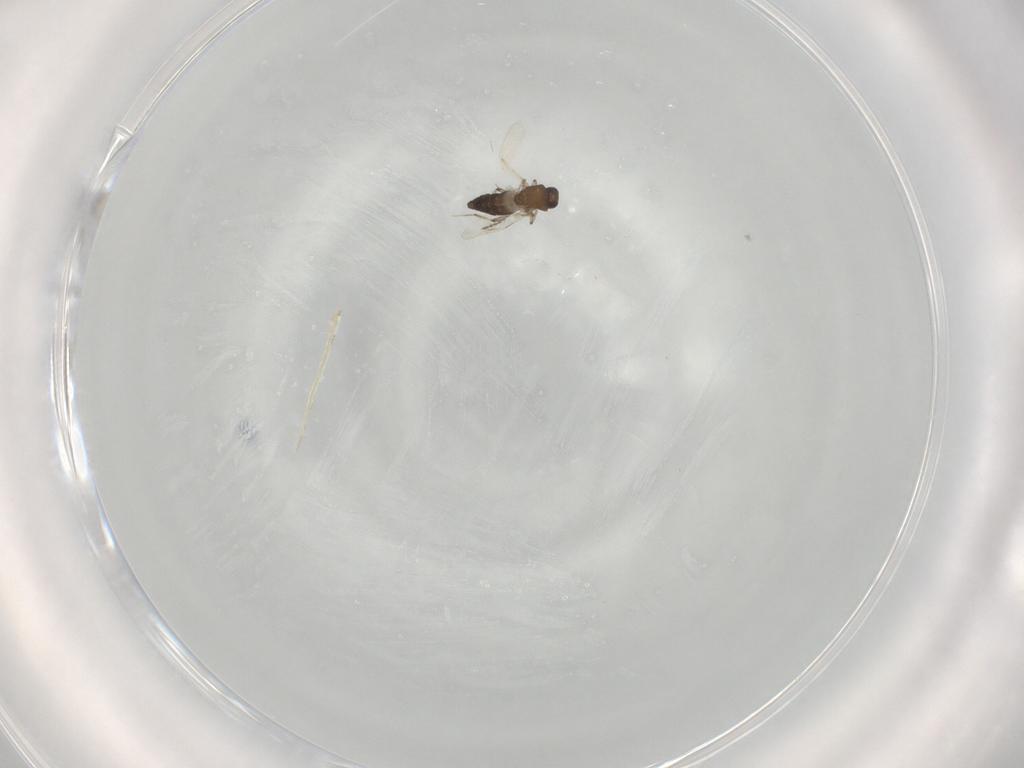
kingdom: Animalia
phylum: Arthropoda
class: Insecta
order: Diptera
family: Ceratopogonidae
